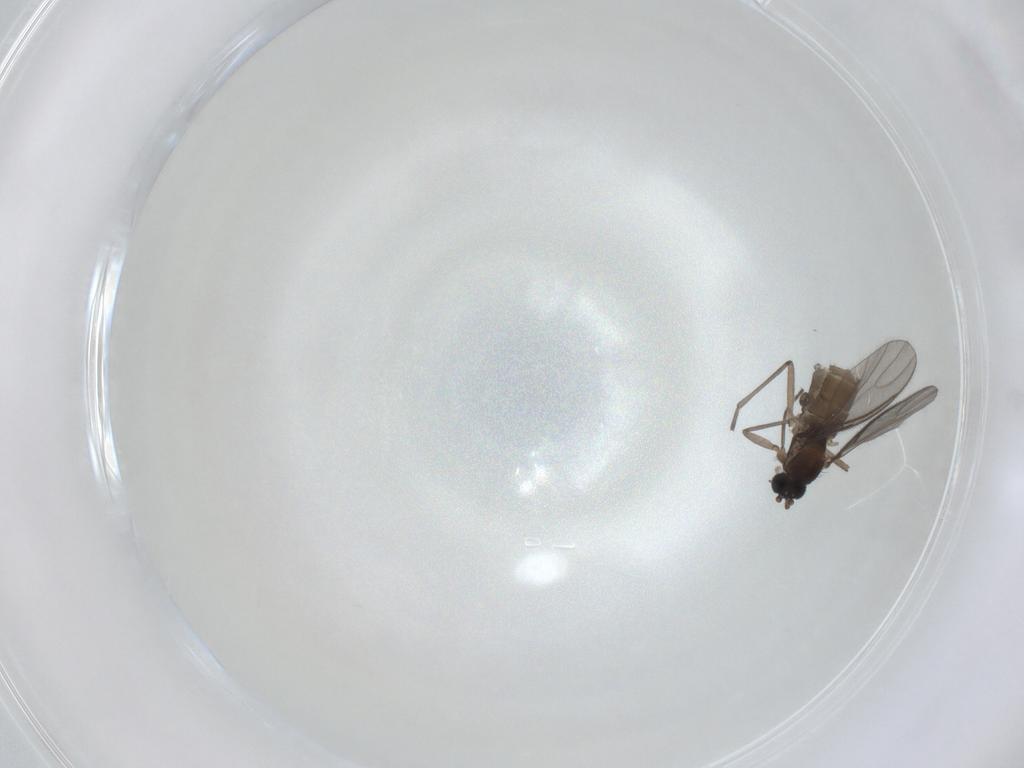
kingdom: Animalia
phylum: Arthropoda
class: Insecta
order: Diptera
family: Sciaridae
